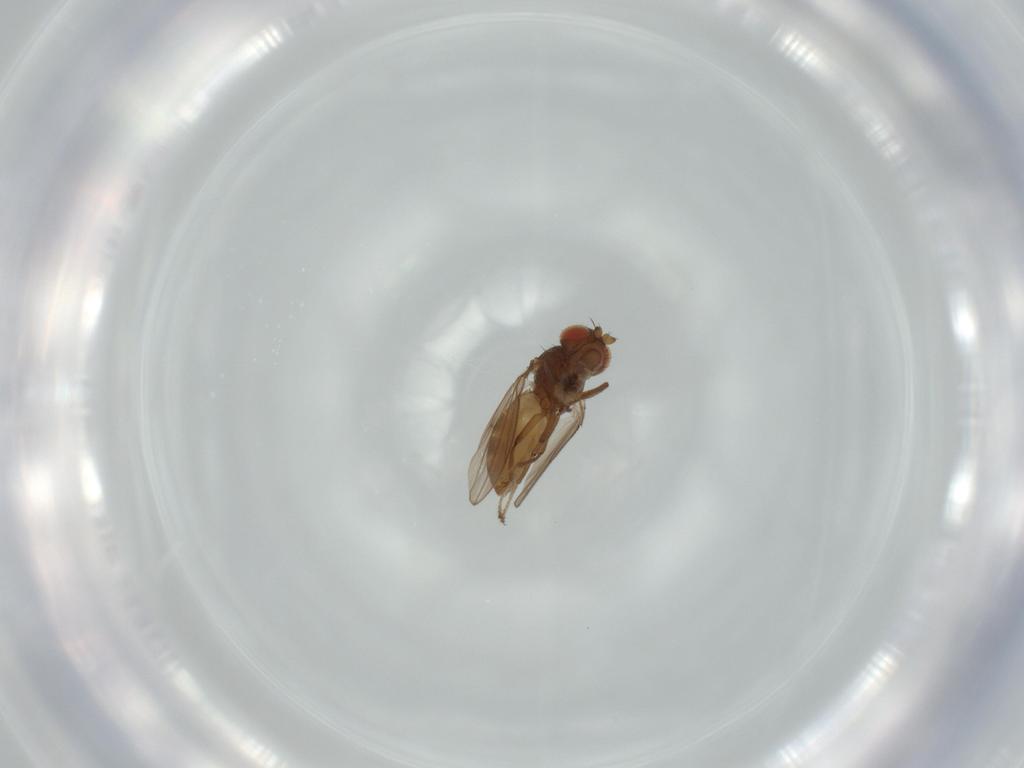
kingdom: Animalia
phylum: Arthropoda
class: Insecta
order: Diptera
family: Ephydridae
